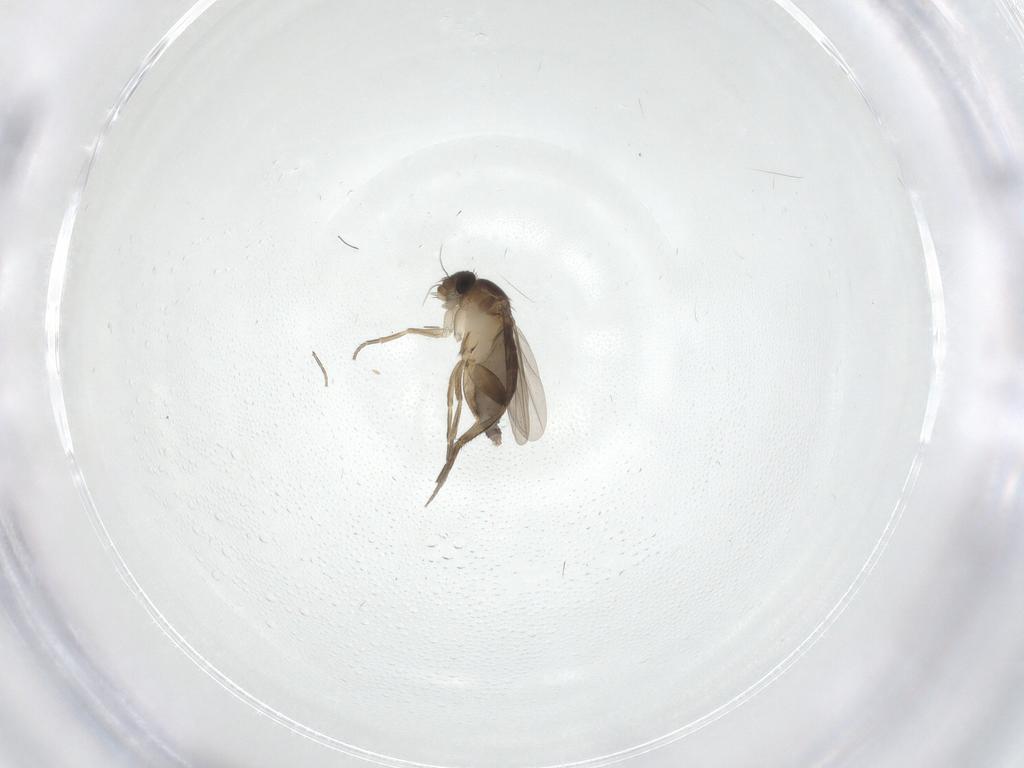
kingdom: Animalia
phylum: Arthropoda
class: Insecta
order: Diptera
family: Phoridae
